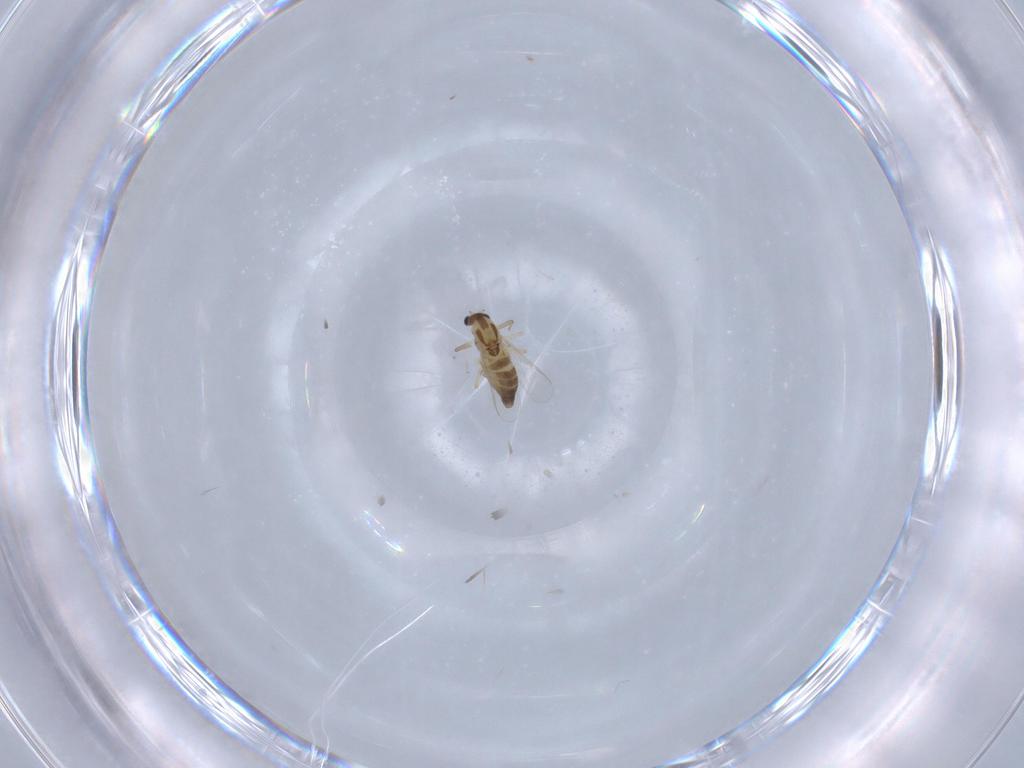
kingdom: Animalia
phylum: Arthropoda
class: Insecta
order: Diptera
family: Chironomidae
